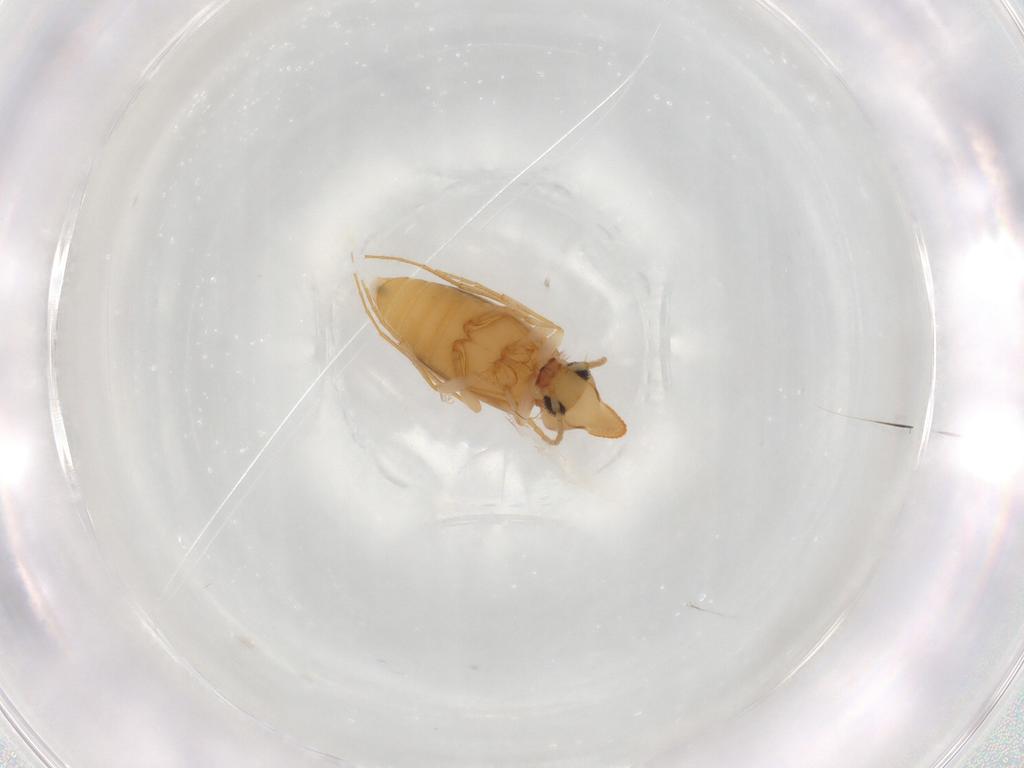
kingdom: Animalia
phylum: Arthropoda
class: Insecta
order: Coleoptera
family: Anthicidae
